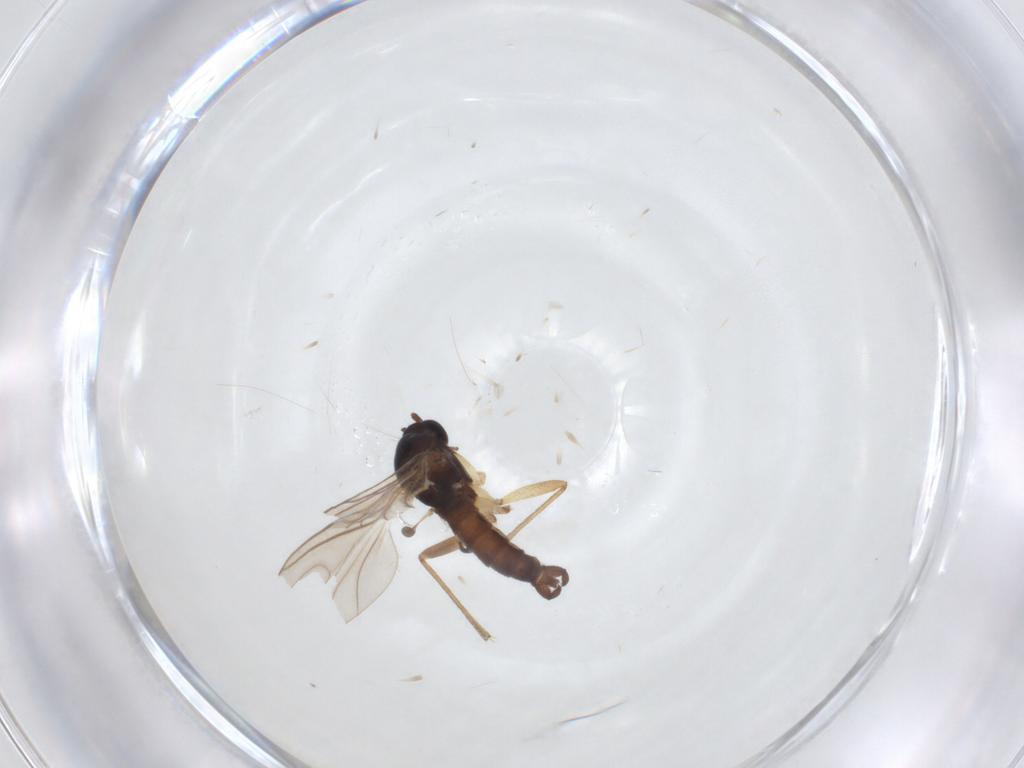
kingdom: Animalia
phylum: Arthropoda
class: Insecta
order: Diptera
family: Sciaridae
